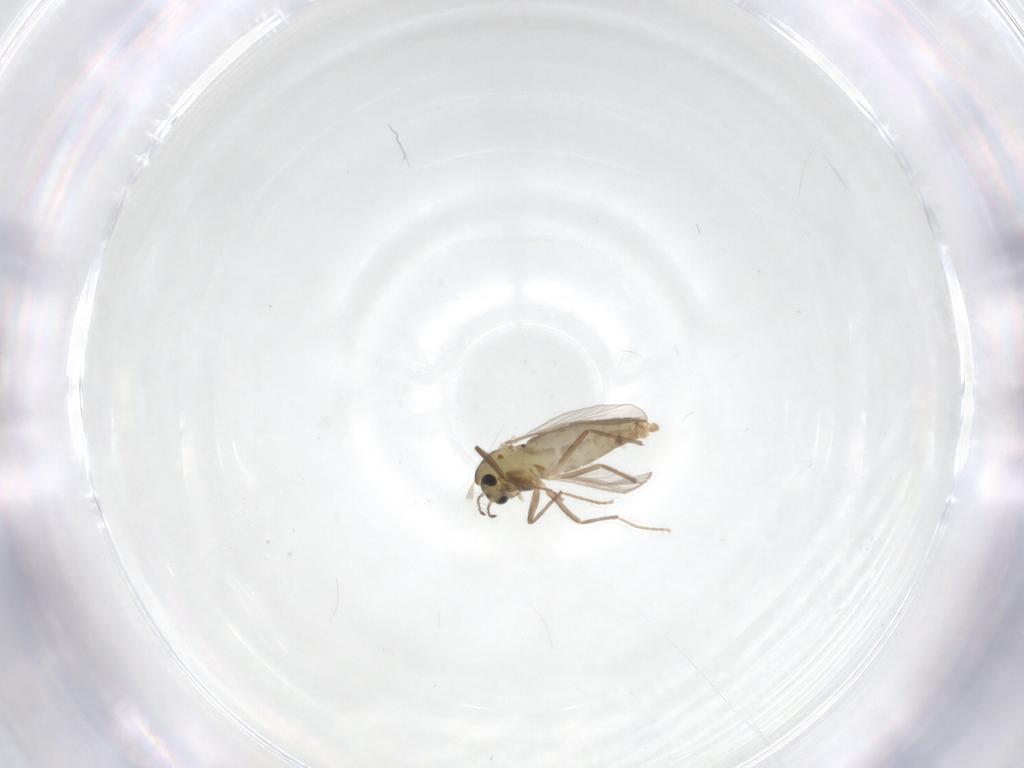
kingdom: Animalia
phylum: Arthropoda
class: Insecta
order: Diptera
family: Chironomidae
